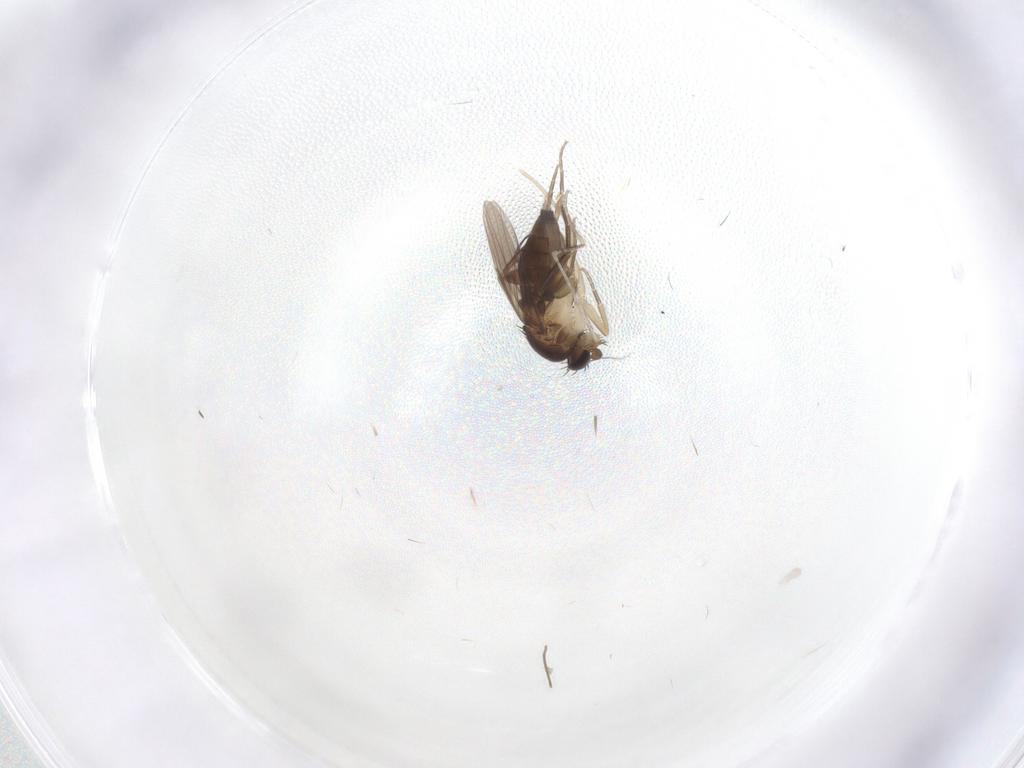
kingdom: Animalia
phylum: Arthropoda
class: Insecta
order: Diptera
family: Phoridae
